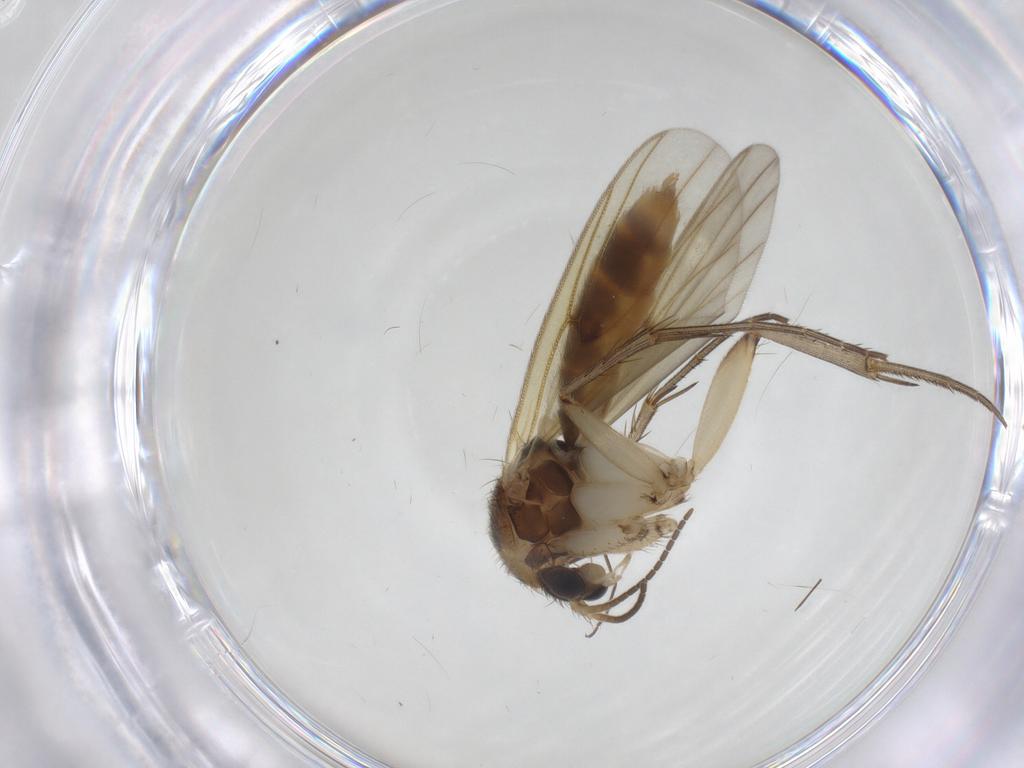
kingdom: Animalia
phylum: Arthropoda
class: Insecta
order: Diptera
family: Mycetophilidae
